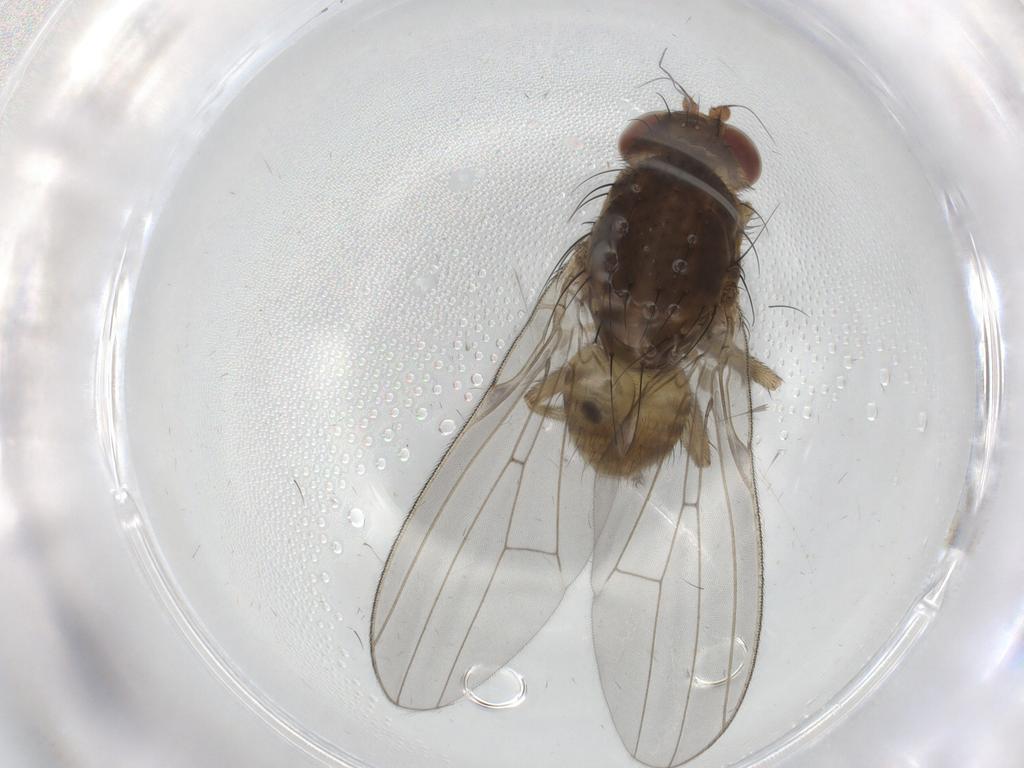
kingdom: Animalia
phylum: Arthropoda
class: Insecta
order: Diptera
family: Lauxaniidae
